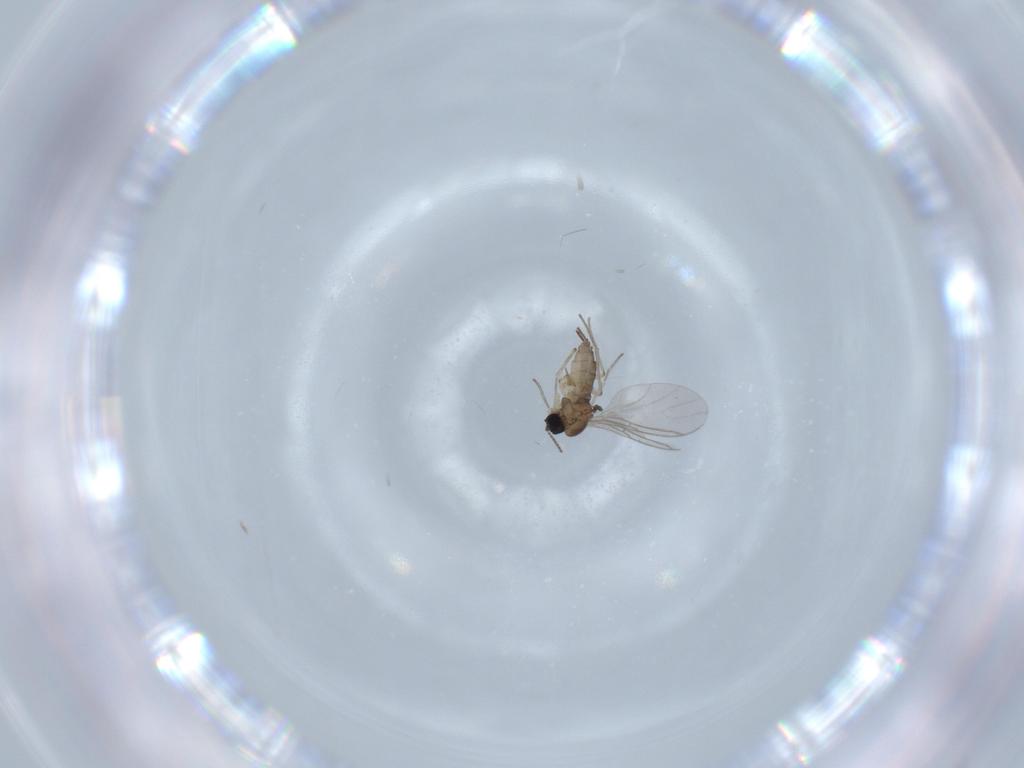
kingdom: Animalia
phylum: Arthropoda
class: Insecta
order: Diptera
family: Sciaridae
